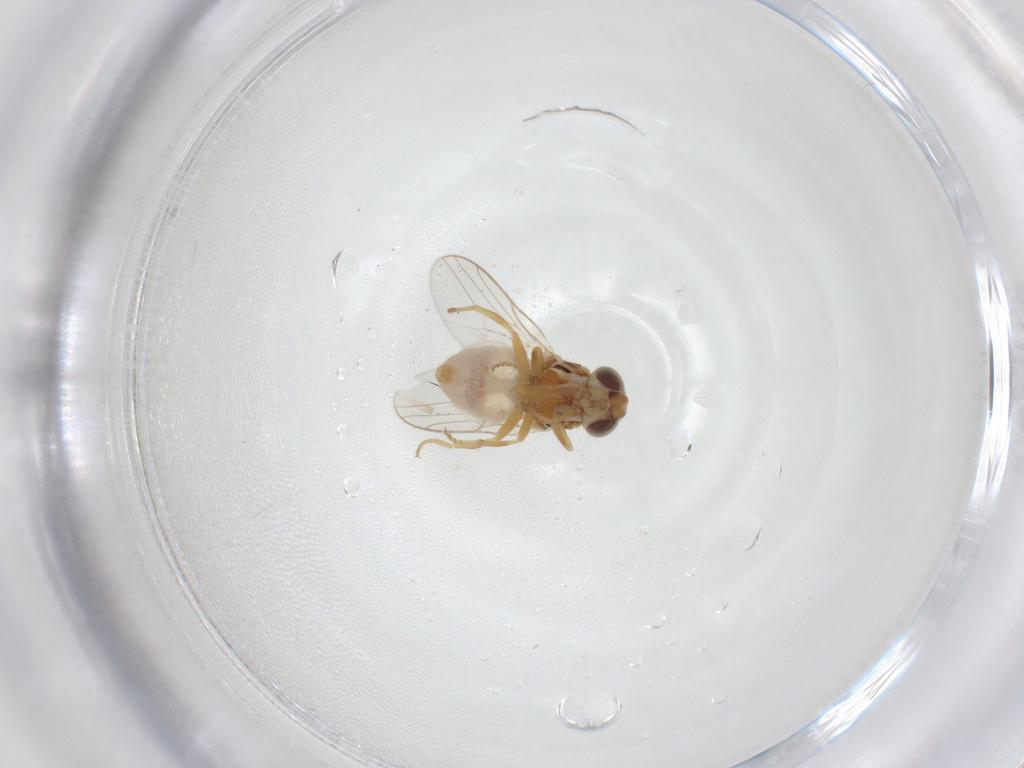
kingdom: Animalia
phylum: Arthropoda
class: Insecta
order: Diptera
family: Chloropidae
